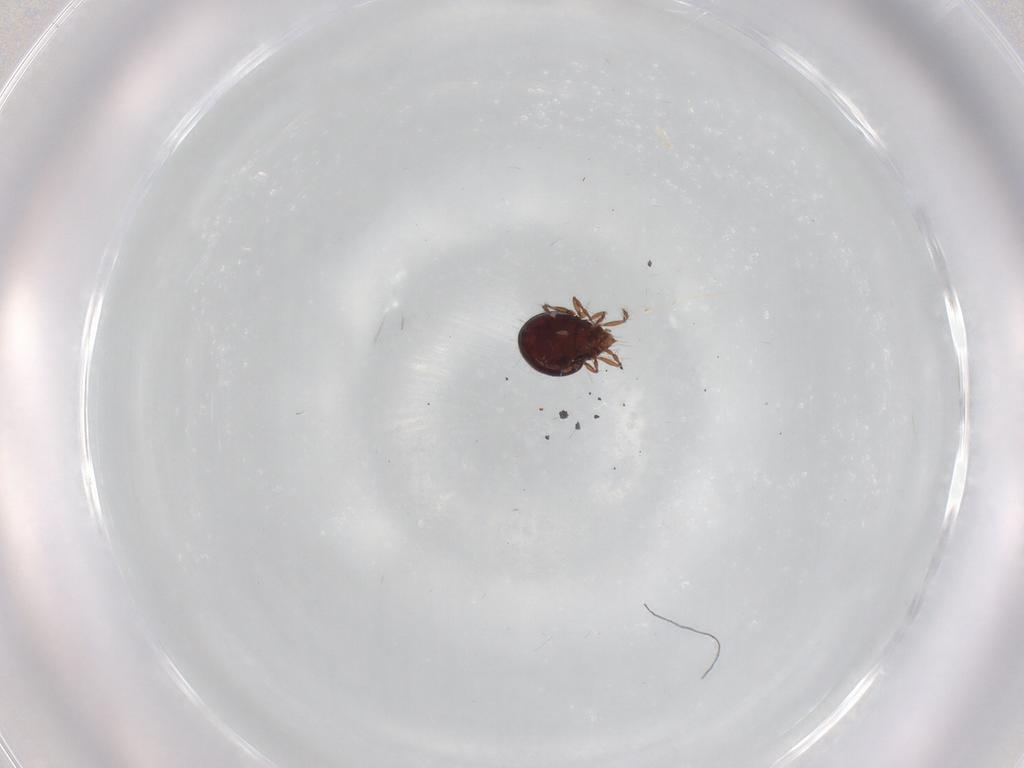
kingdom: Animalia
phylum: Arthropoda
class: Arachnida
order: Sarcoptiformes
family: Ceratoppiidae
